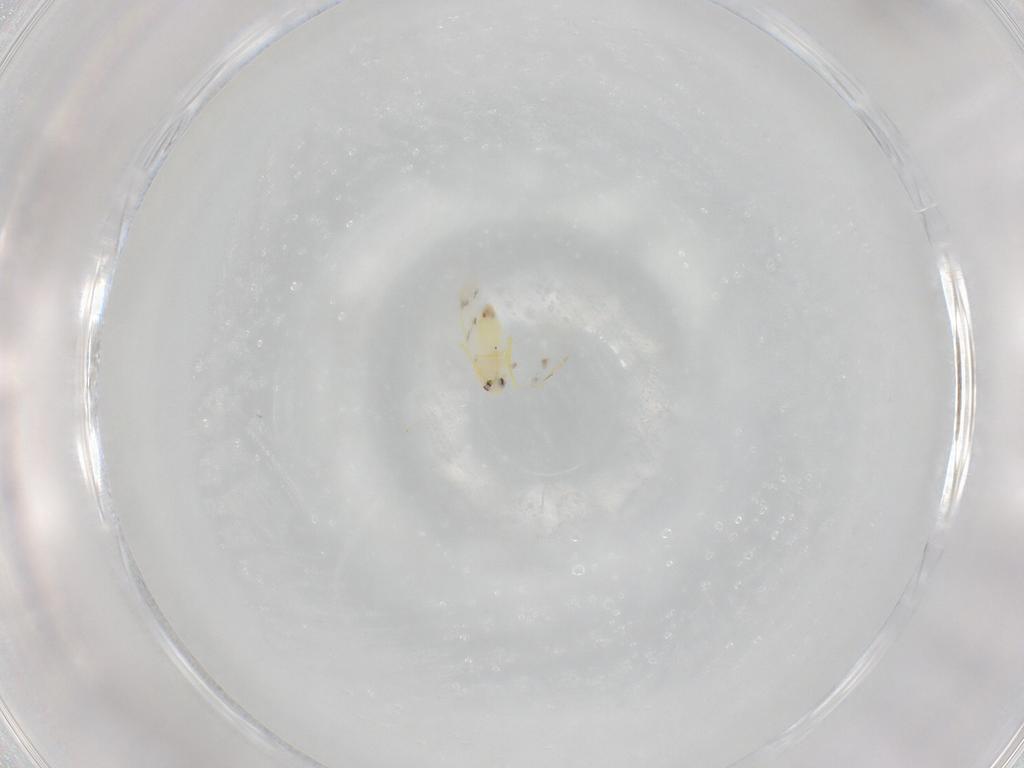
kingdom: Animalia
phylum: Arthropoda
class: Insecta
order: Hemiptera
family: Aleyrodidae
